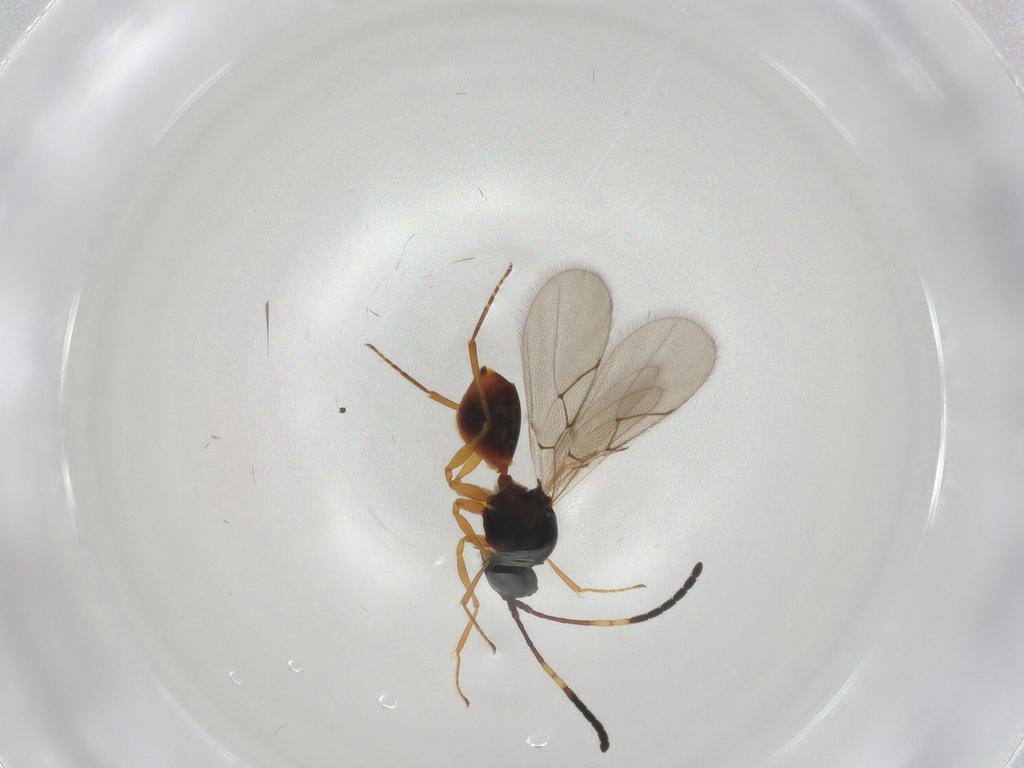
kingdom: Animalia
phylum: Arthropoda
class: Insecta
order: Hymenoptera
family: Figitidae
